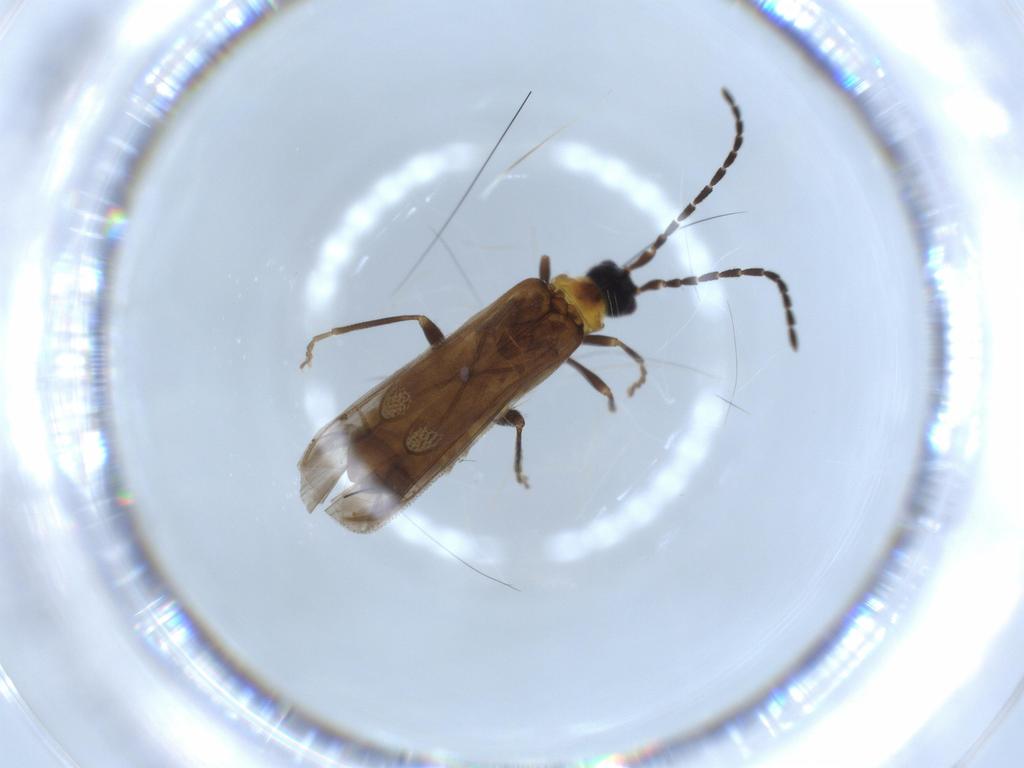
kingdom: Animalia
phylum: Arthropoda
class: Insecta
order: Coleoptera
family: Cantharidae
